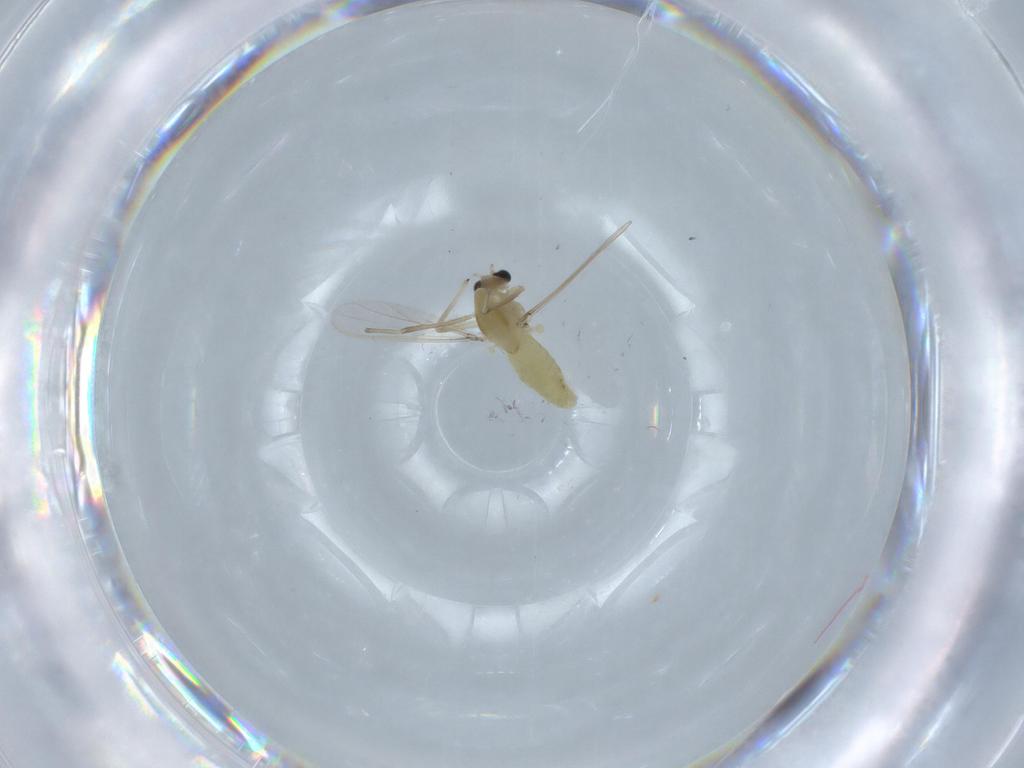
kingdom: Animalia
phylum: Arthropoda
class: Insecta
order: Diptera
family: Chironomidae
